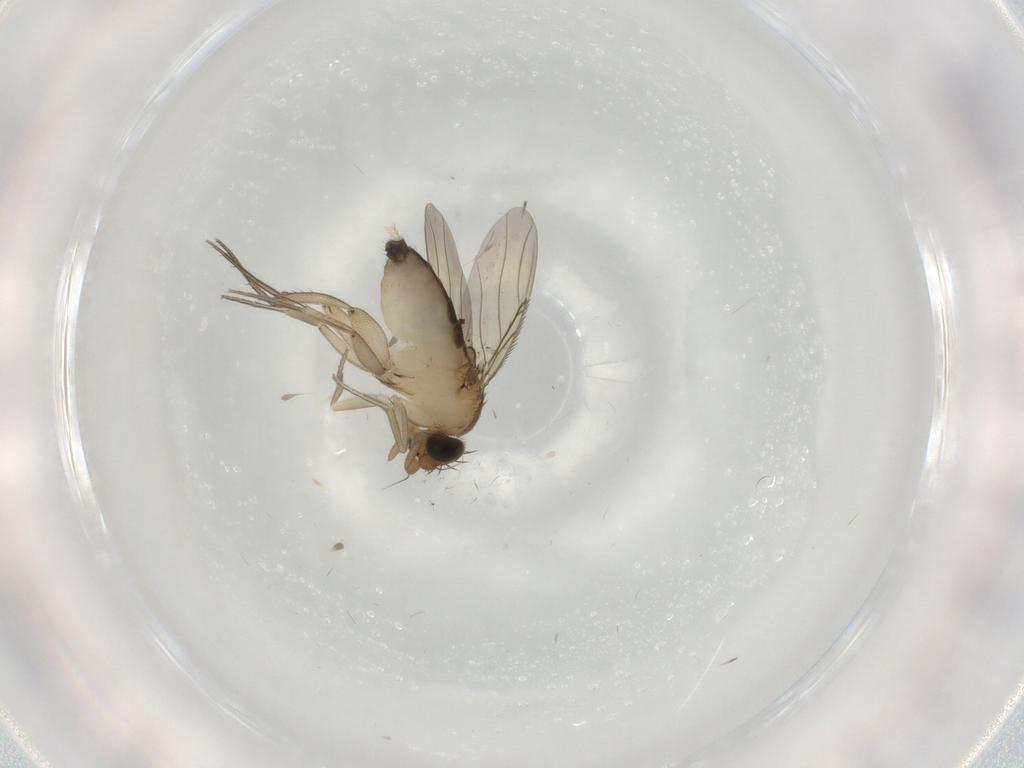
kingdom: Animalia
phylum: Arthropoda
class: Insecta
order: Diptera
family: Phoridae
